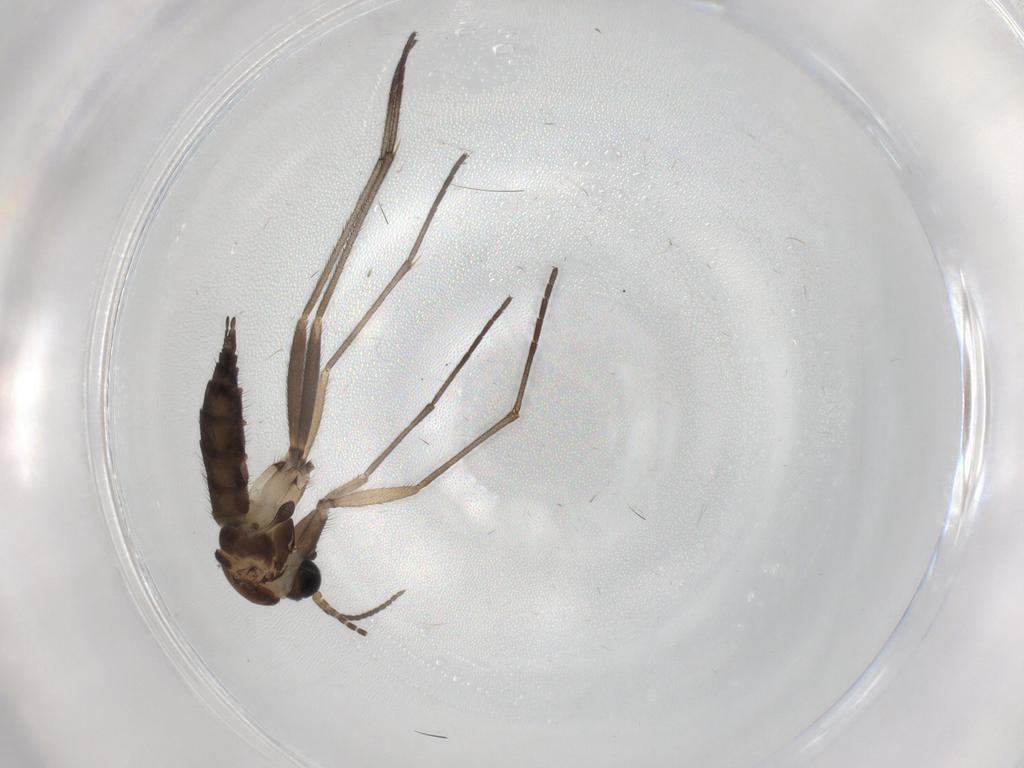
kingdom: Animalia
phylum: Arthropoda
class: Insecta
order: Diptera
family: Sciaridae
